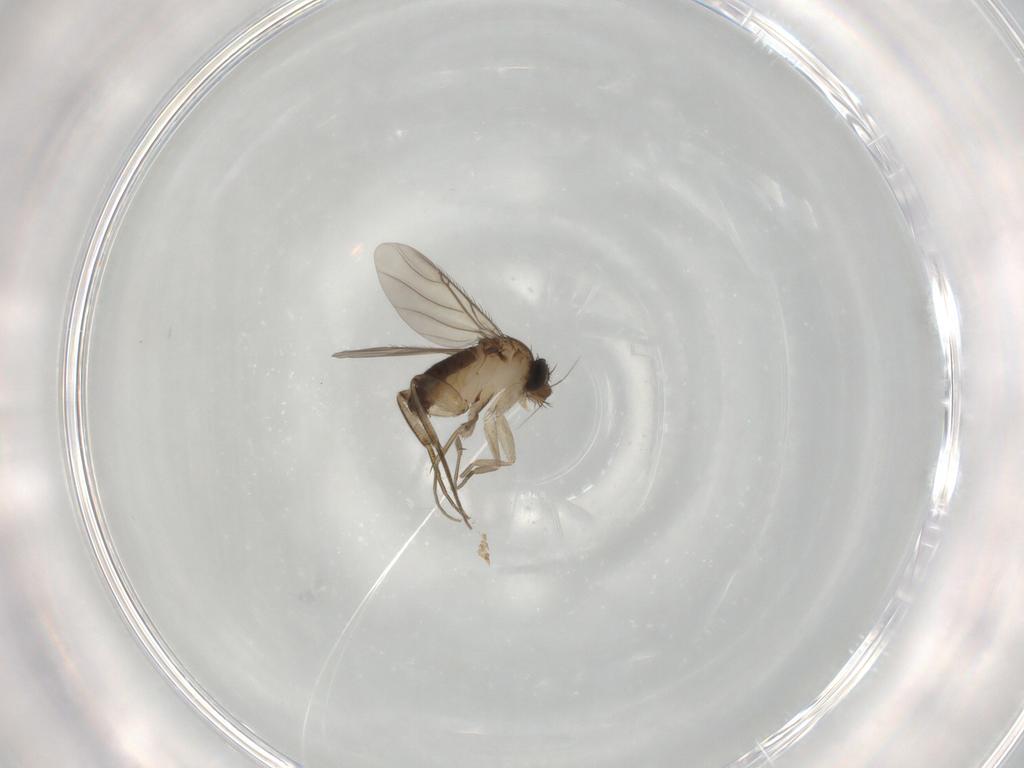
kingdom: Animalia
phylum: Arthropoda
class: Insecta
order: Diptera
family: Phoridae
